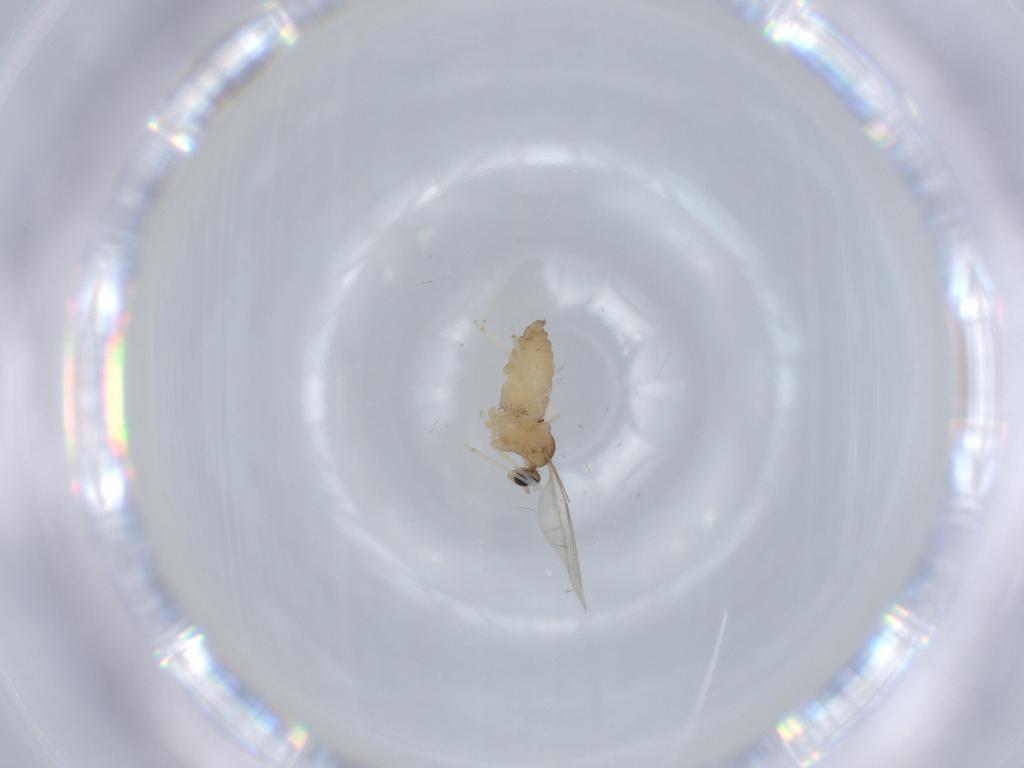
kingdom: Animalia
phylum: Arthropoda
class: Insecta
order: Diptera
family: Cecidomyiidae
